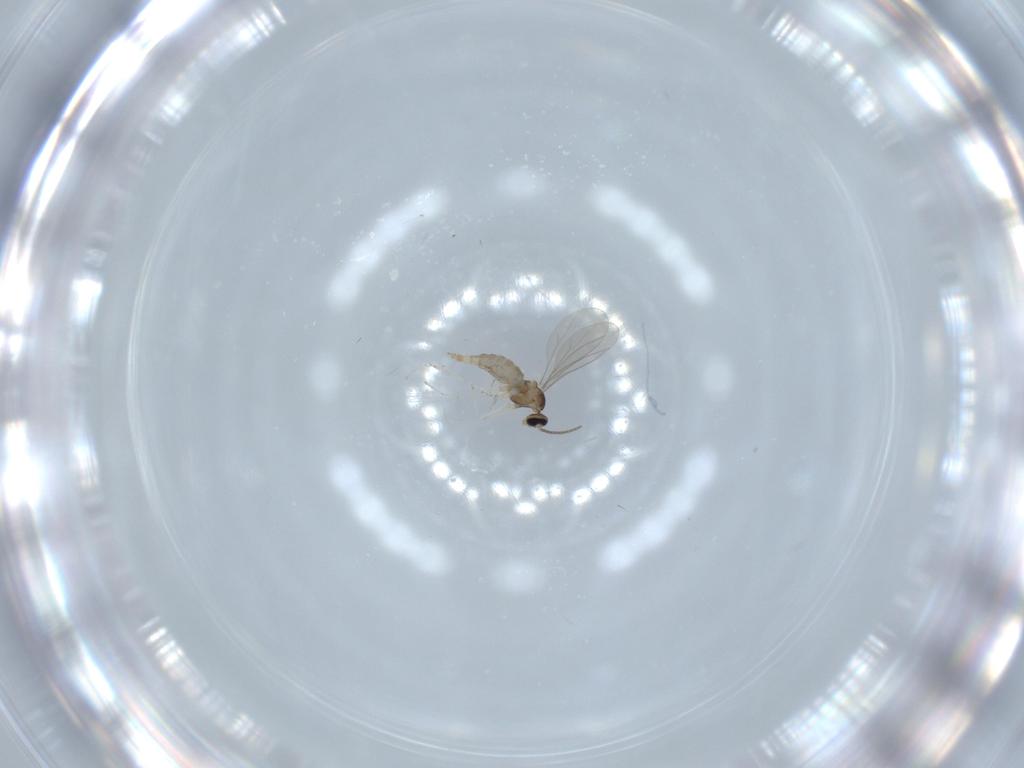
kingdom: Animalia
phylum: Arthropoda
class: Insecta
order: Diptera
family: Cecidomyiidae
